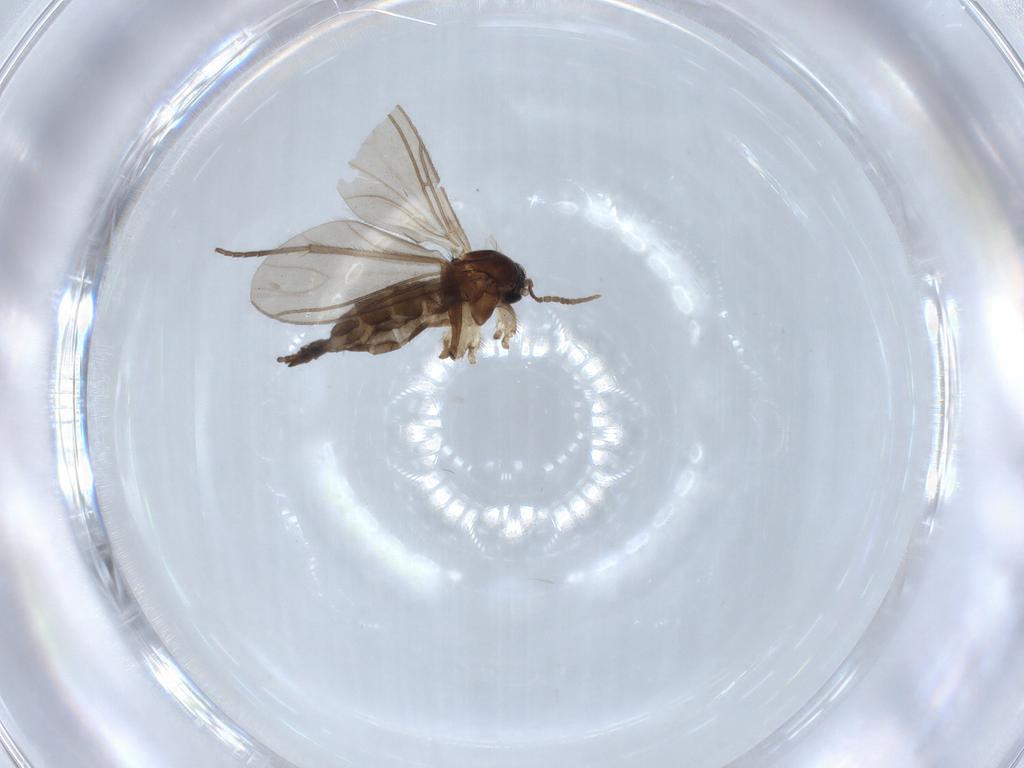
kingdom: Animalia
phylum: Arthropoda
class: Insecta
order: Diptera
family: Sciaridae
